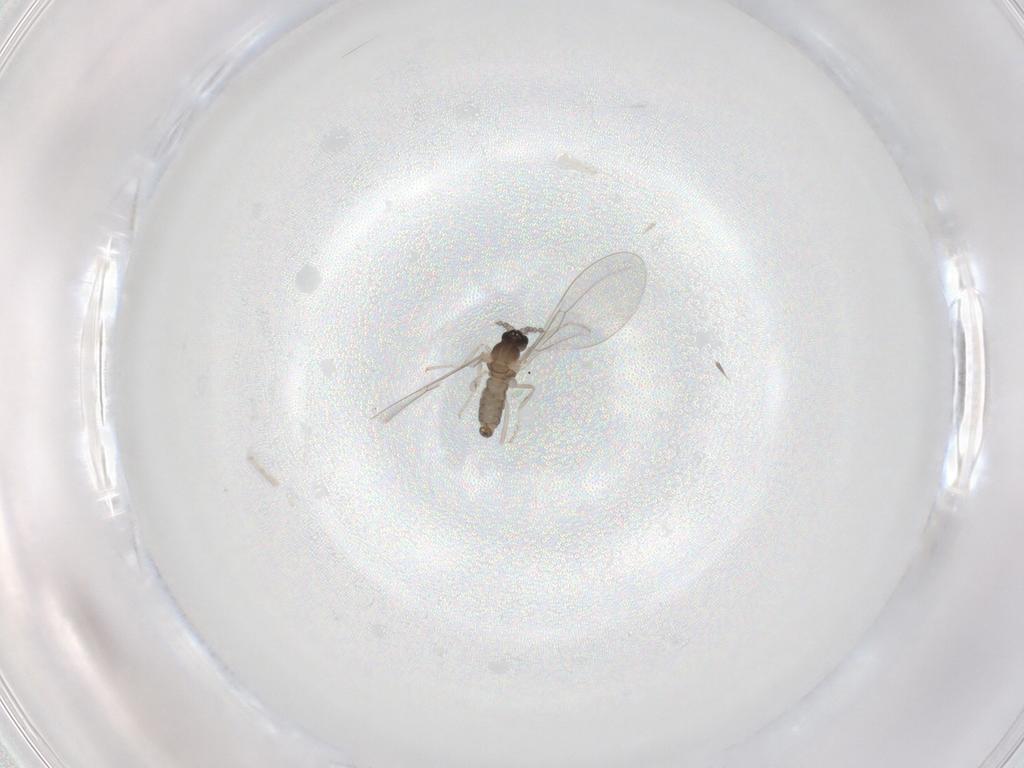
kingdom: Animalia
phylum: Arthropoda
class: Insecta
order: Diptera
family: Cecidomyiidae
